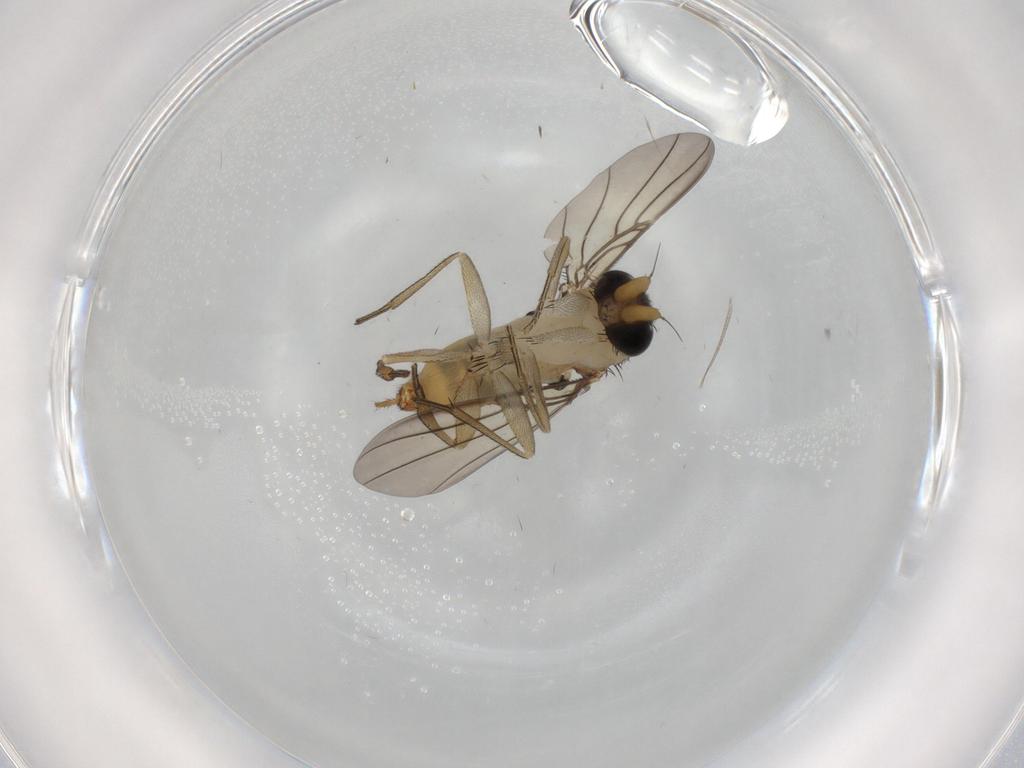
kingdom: Animalia
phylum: Arthropoda
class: Insecta
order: Diptera
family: Phoridae
